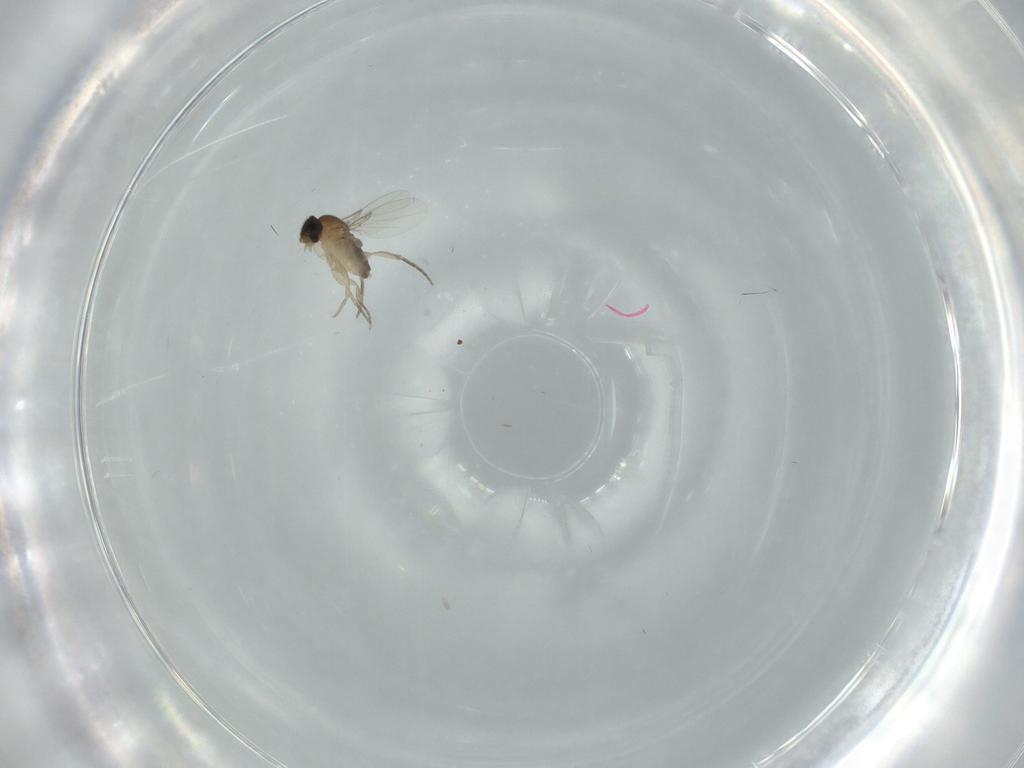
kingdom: Animalia
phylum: Arthropoda
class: Insecta
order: Diptera
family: Phoridae
